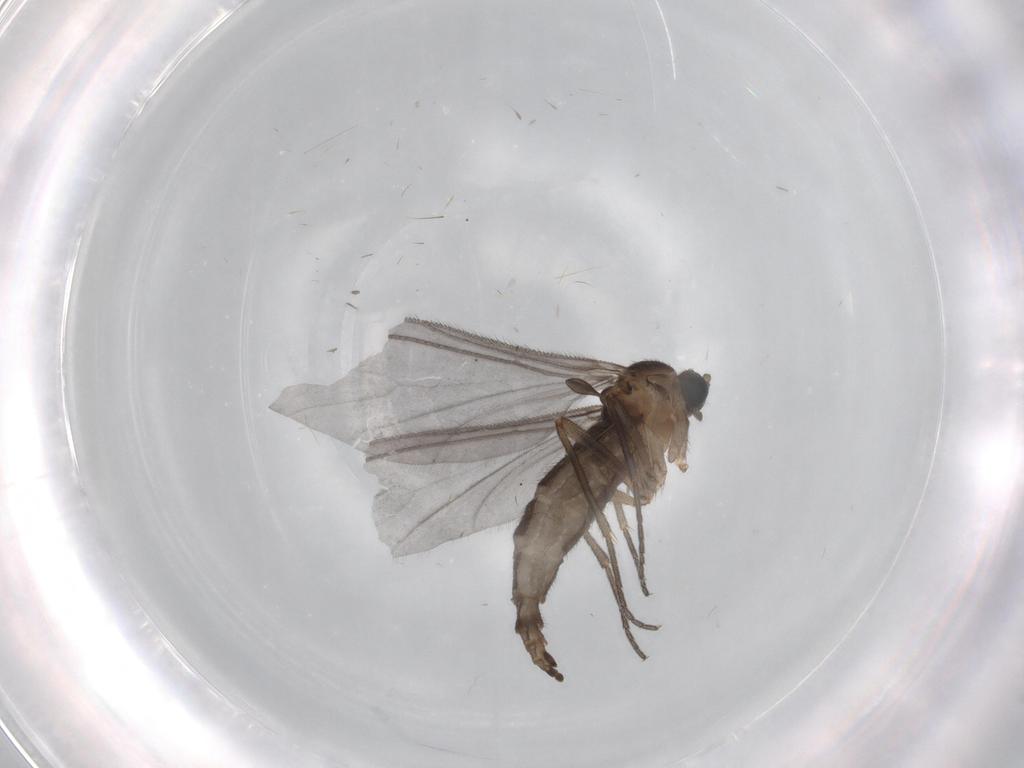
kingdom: Animalia
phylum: Arthropoda
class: Insecta
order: Diptera
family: Sciaridae
